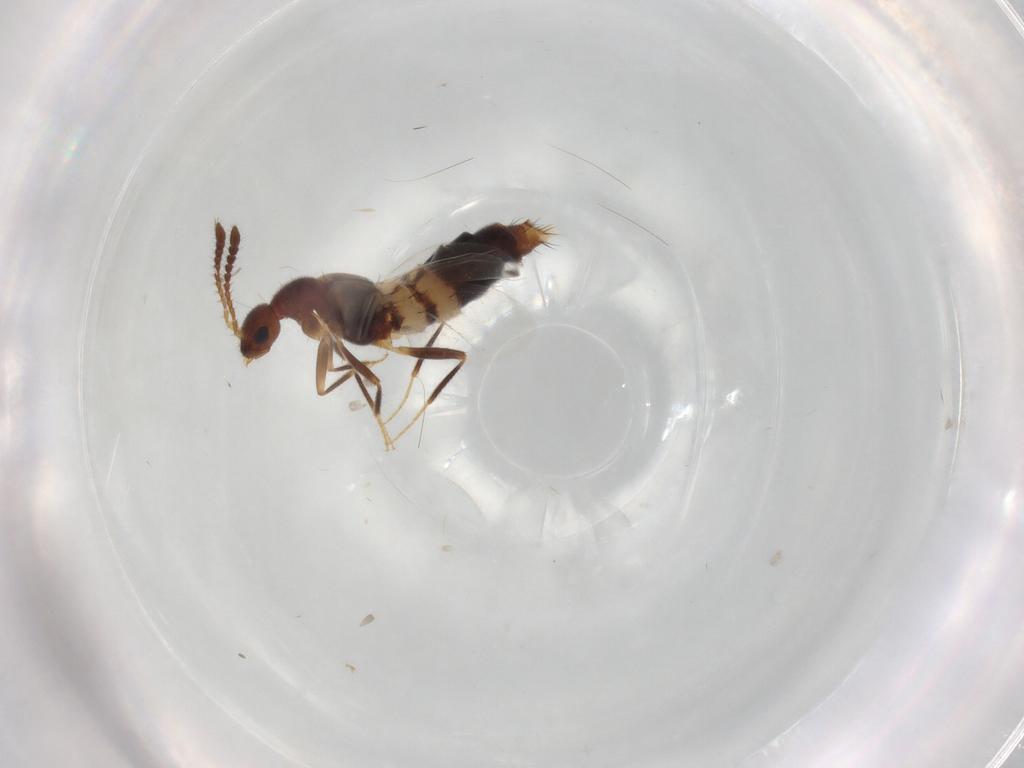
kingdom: Animalia
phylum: Arthropoda
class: Insecta
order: Coleoptera
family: Staphylinidae
